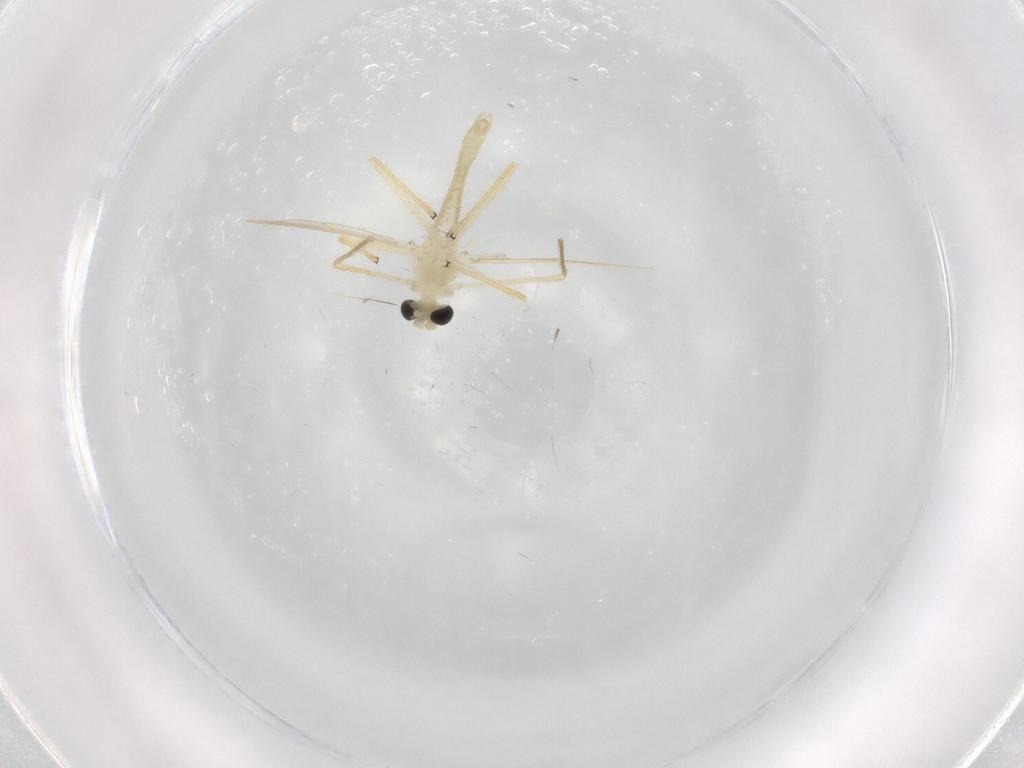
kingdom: Animalia
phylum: Arthropoda
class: Insecta
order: Diptera
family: Chironomidae
